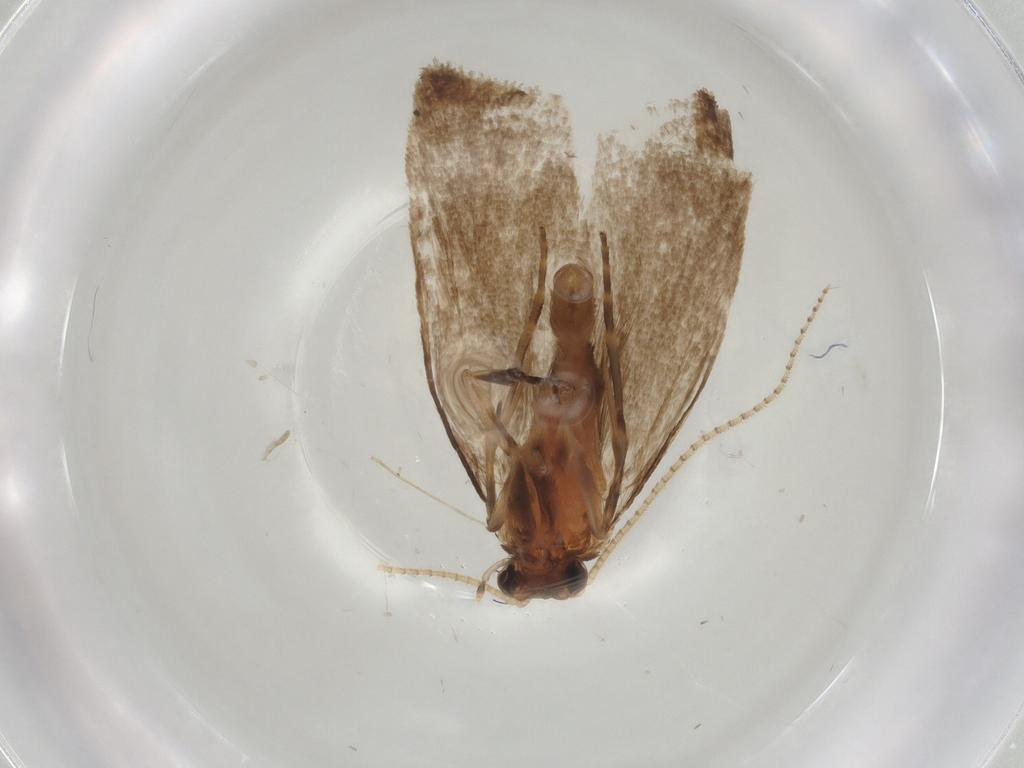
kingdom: Animalia
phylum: Arthropoda
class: Insecta
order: Lepidoptera
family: Tineidae
